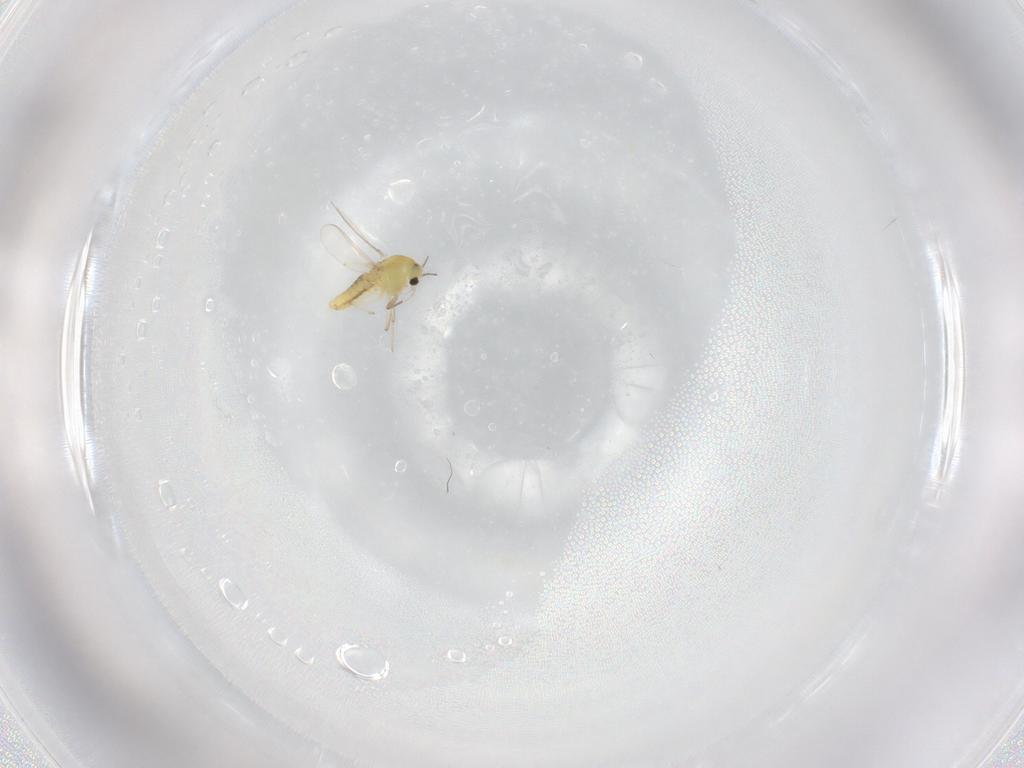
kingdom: Animalia
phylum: Arthropoda
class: Insecta
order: Diptera
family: Chironomidae
